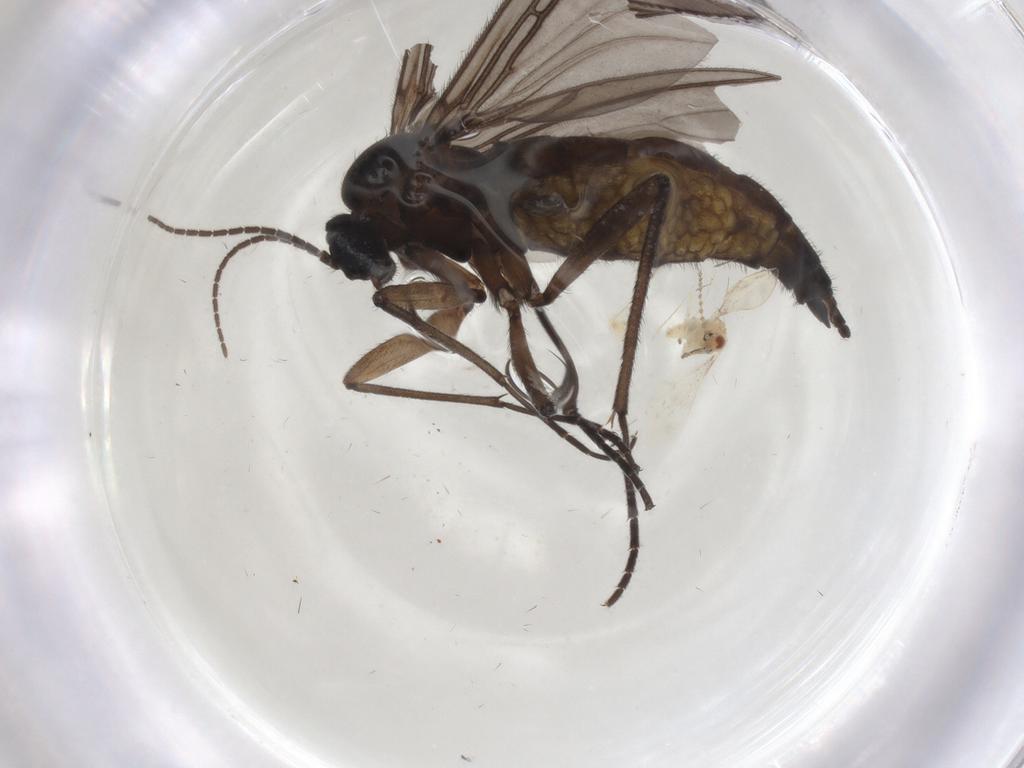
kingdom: Animalia
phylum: Arthropoda
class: Insecta
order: Diptera
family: Sciaridae
